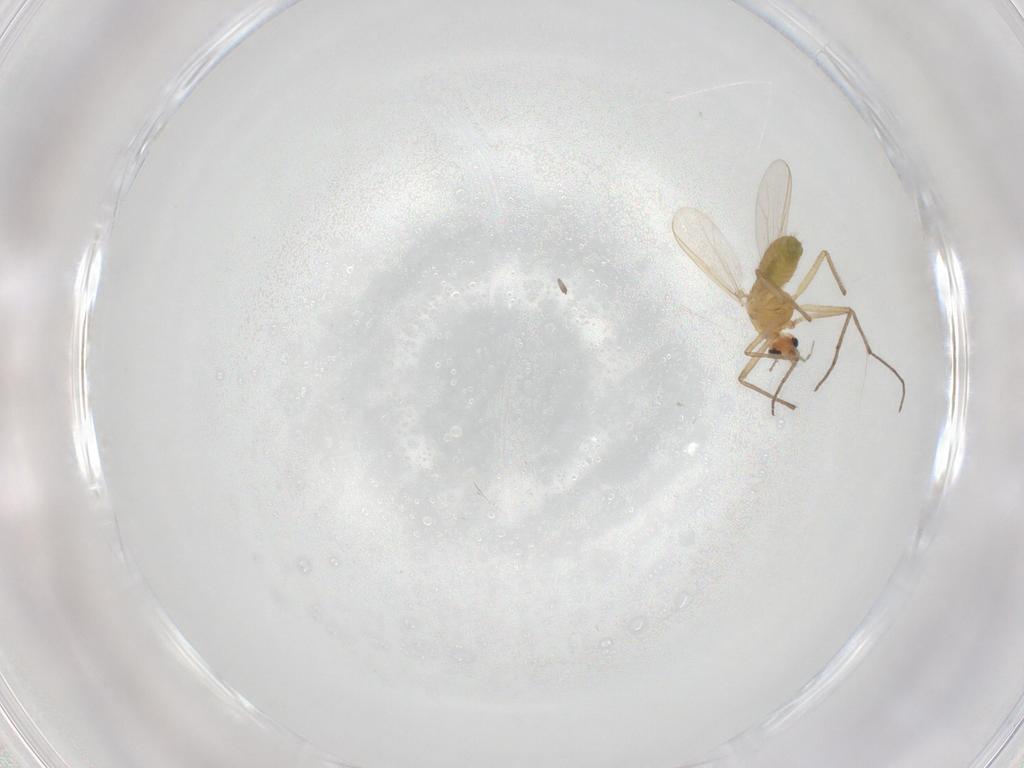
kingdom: Animalia
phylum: Arthropoda
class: Insecta
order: Diptera
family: Chironomidae
